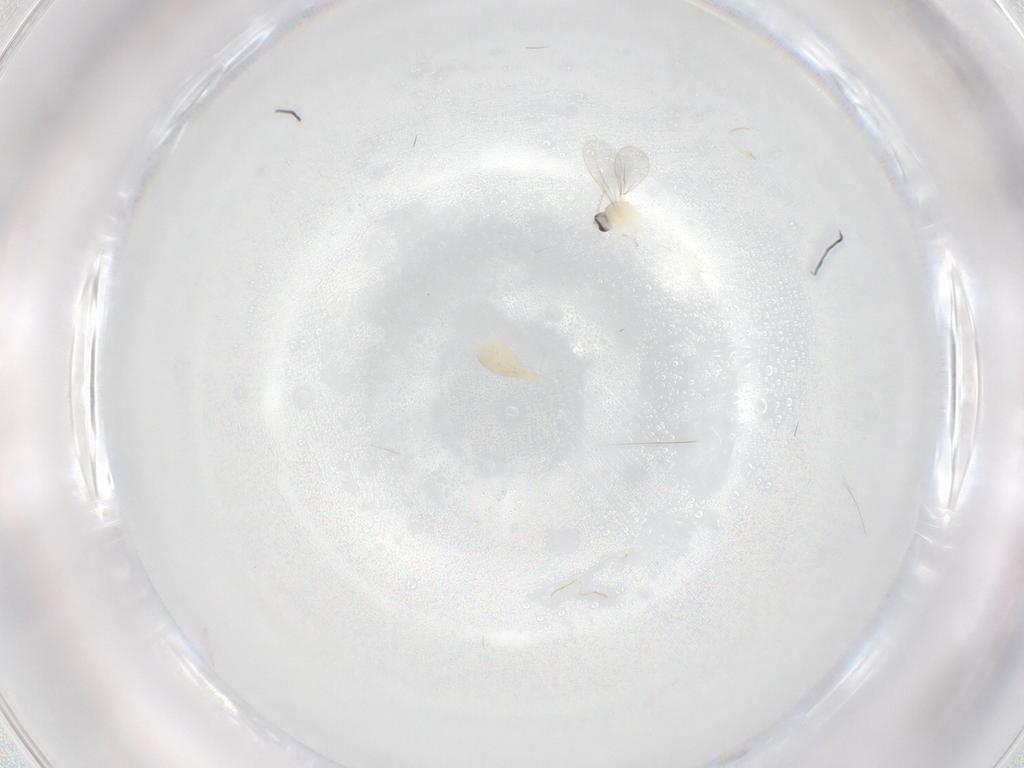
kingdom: Animalia
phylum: Arthropoda
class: Insecta
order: Diptera
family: Cecidomyiidae
